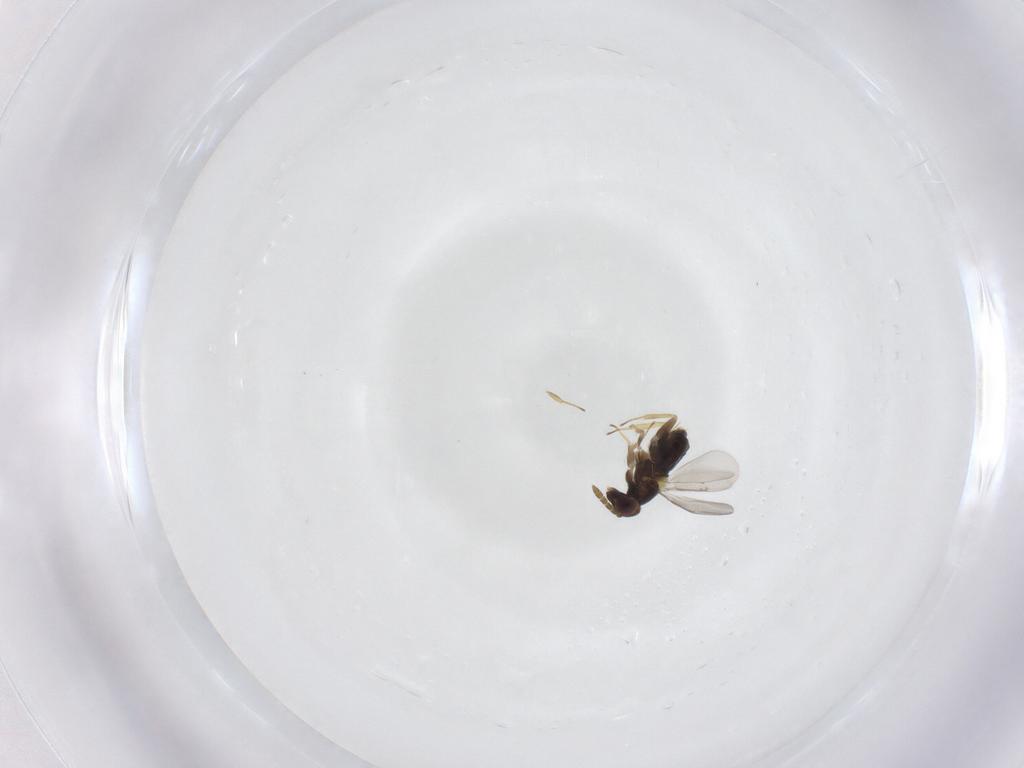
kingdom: Animalia
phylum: Arthropoda
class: Insecta
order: Hymenoptera
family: Aphelinidae
